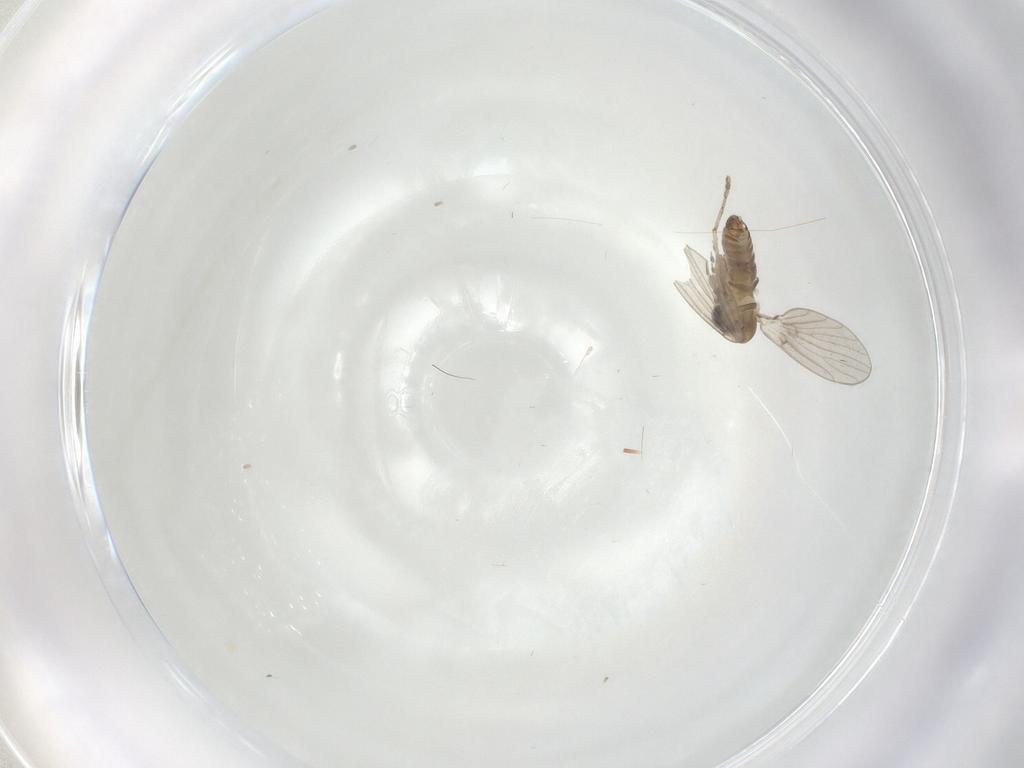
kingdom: Animalia
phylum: Arthropoda
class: Insecta
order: Diptera
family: Psychodidae
